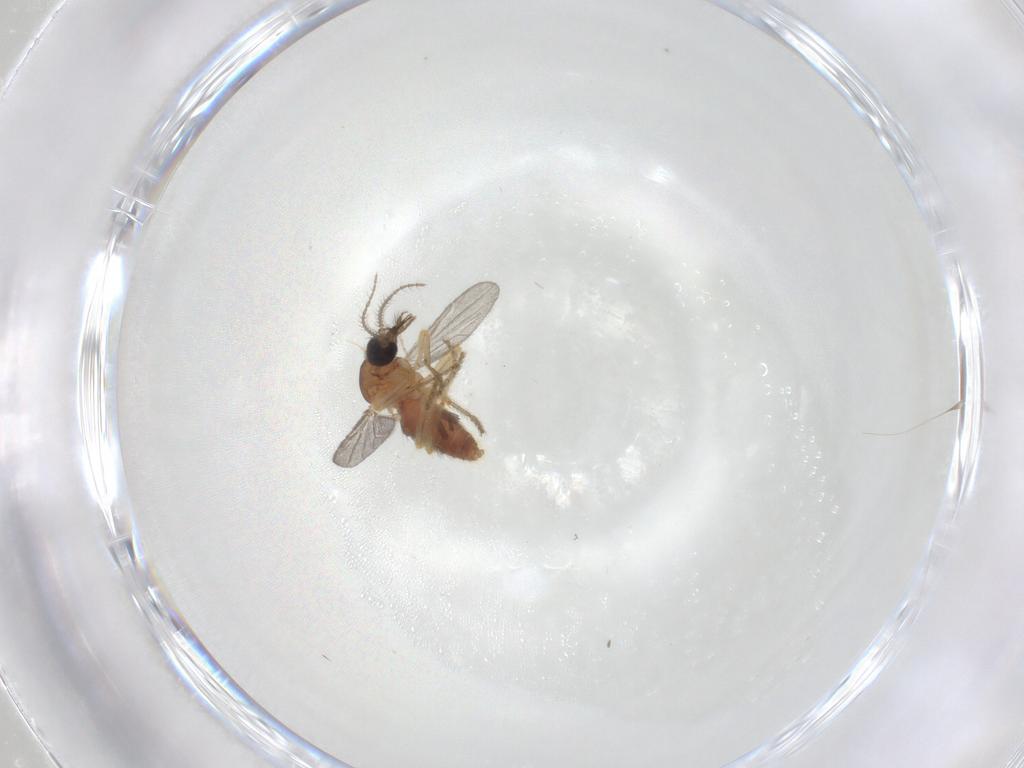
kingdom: Animalia
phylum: Arthropoda
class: Insecta
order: Diptera
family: Ceratopogonidae
